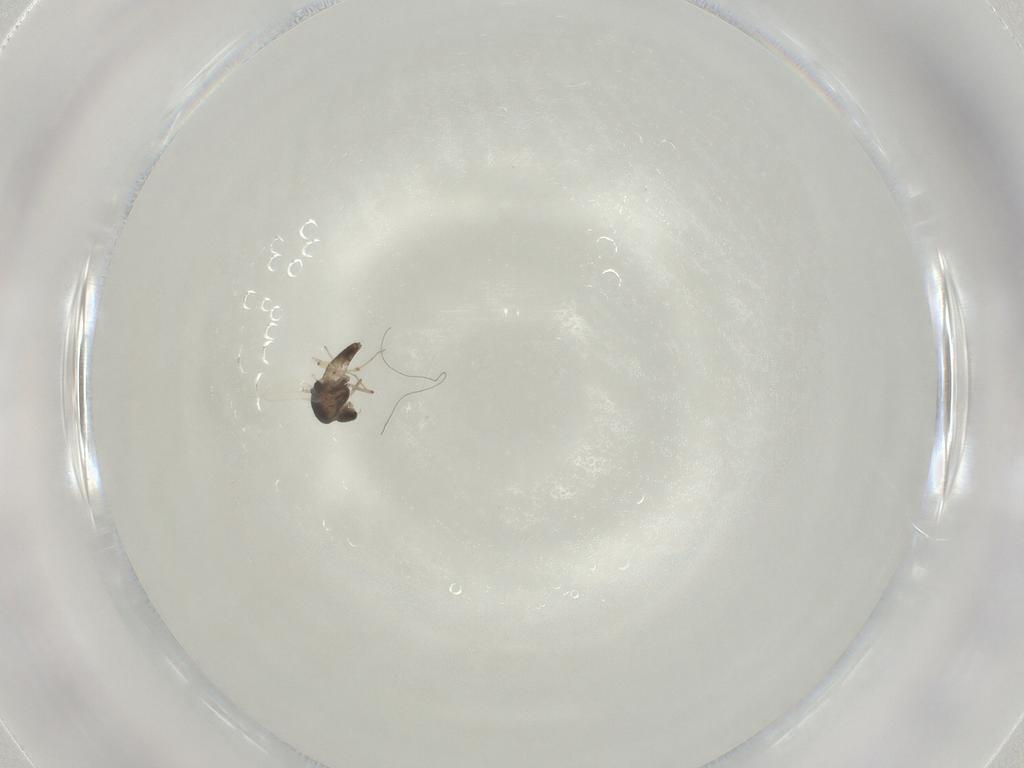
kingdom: Animalia
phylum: Arthropoda
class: Insecta
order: Diptera
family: Chironomidae
